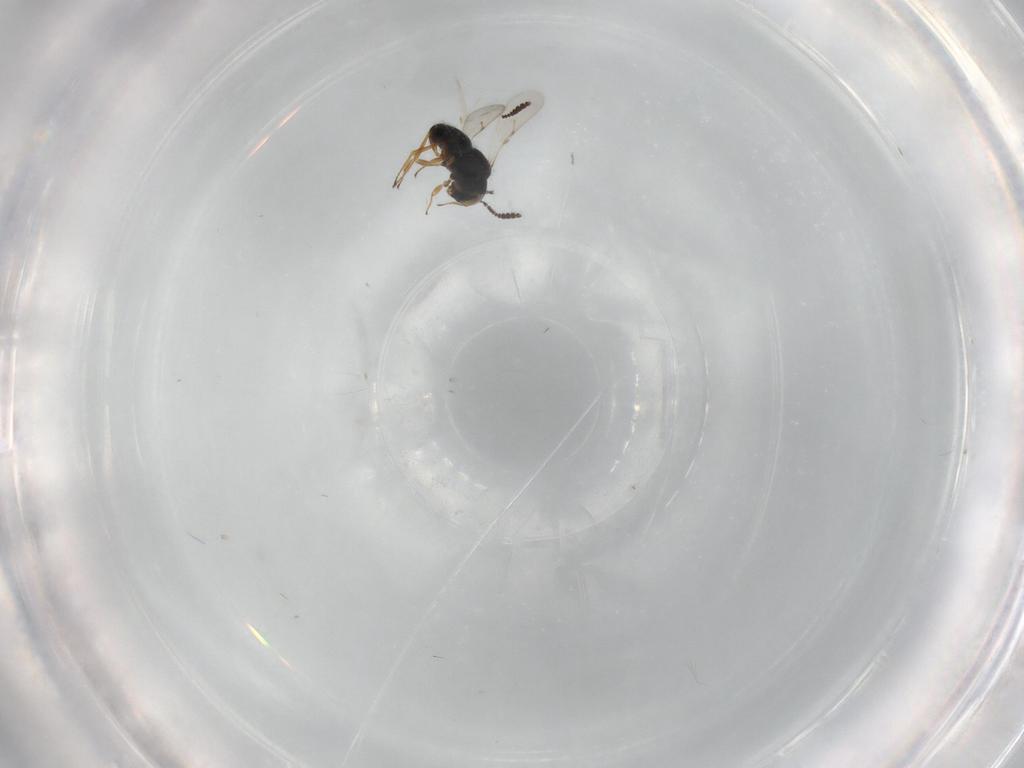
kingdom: Animalia
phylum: Arthropoda
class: Insecta
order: Hymenoptera
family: Scelionidae
